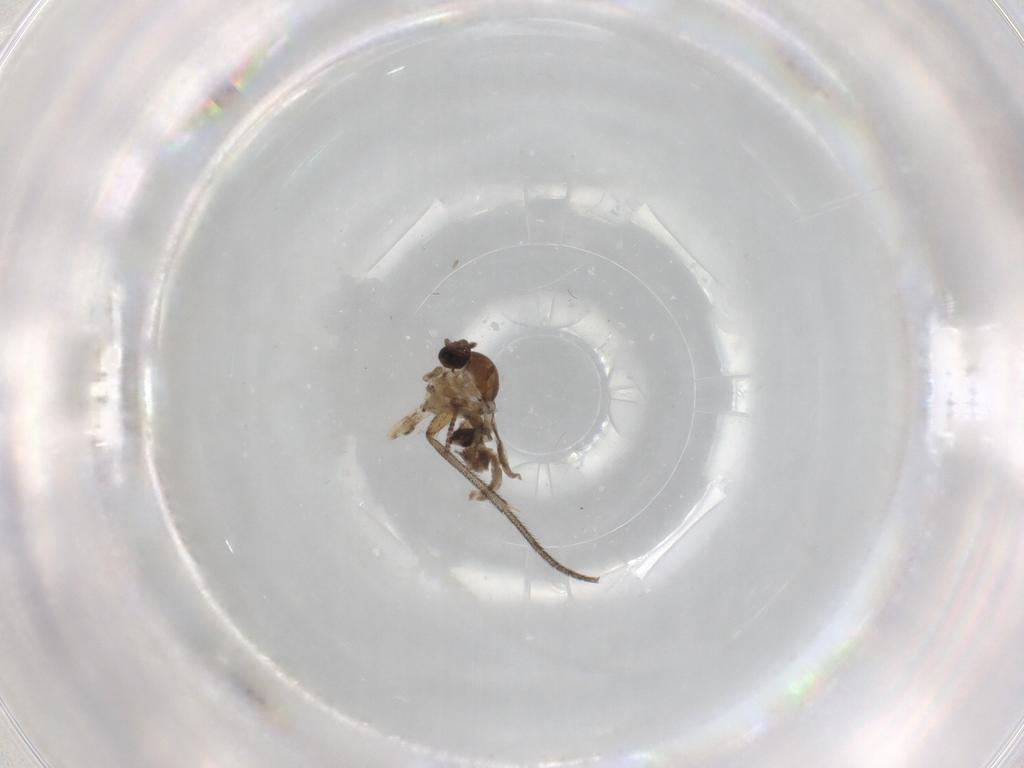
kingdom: Animalia
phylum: Arthropoda
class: Insecta
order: Diptera
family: Ceratopogonidae
